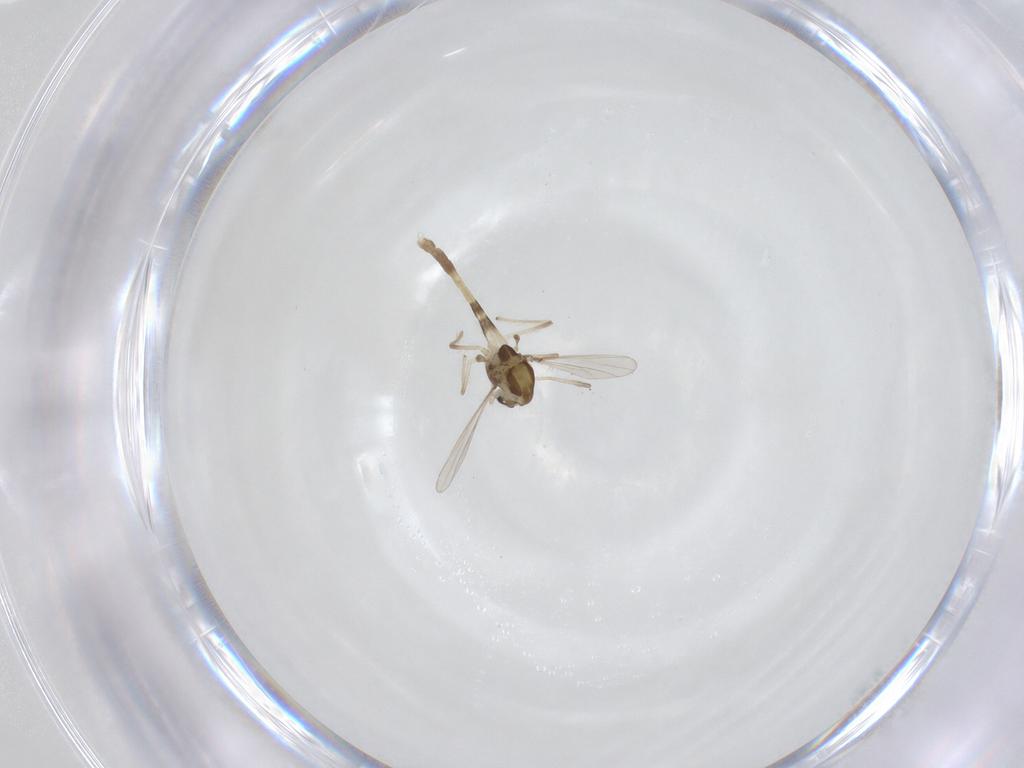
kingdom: Animalia
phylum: Arthropoda
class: Insecta
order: Diptera
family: Chironomidae
